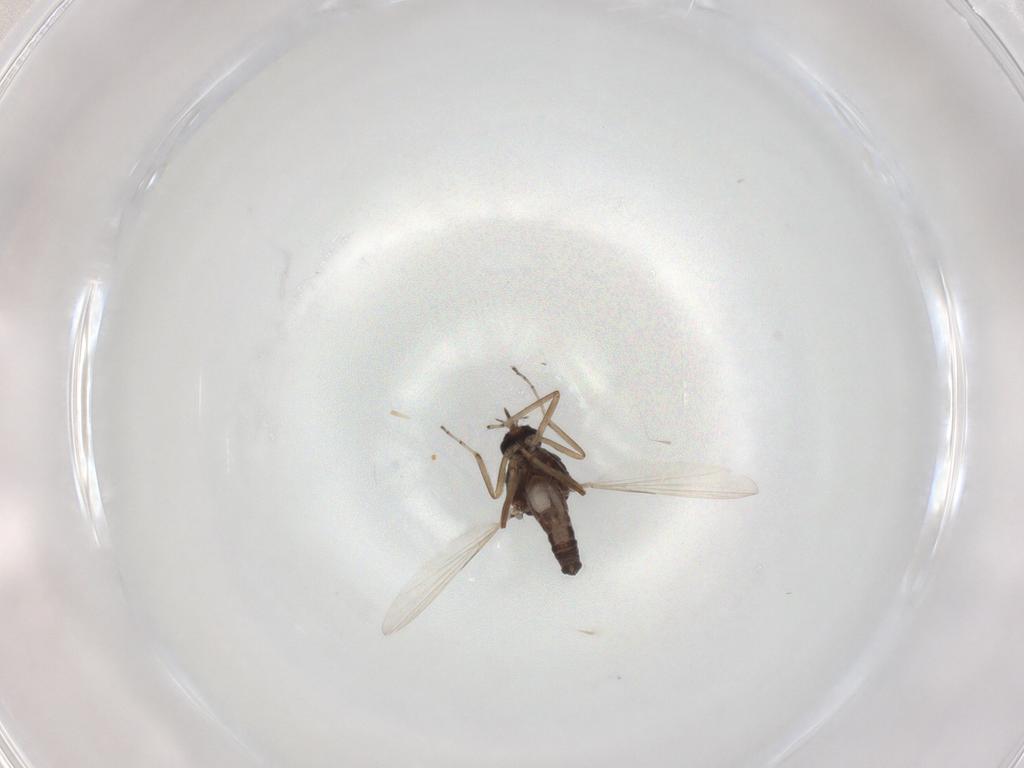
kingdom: Animalia
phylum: Arthropoda
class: Insecta
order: Diptera
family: Ceratopogonidae
